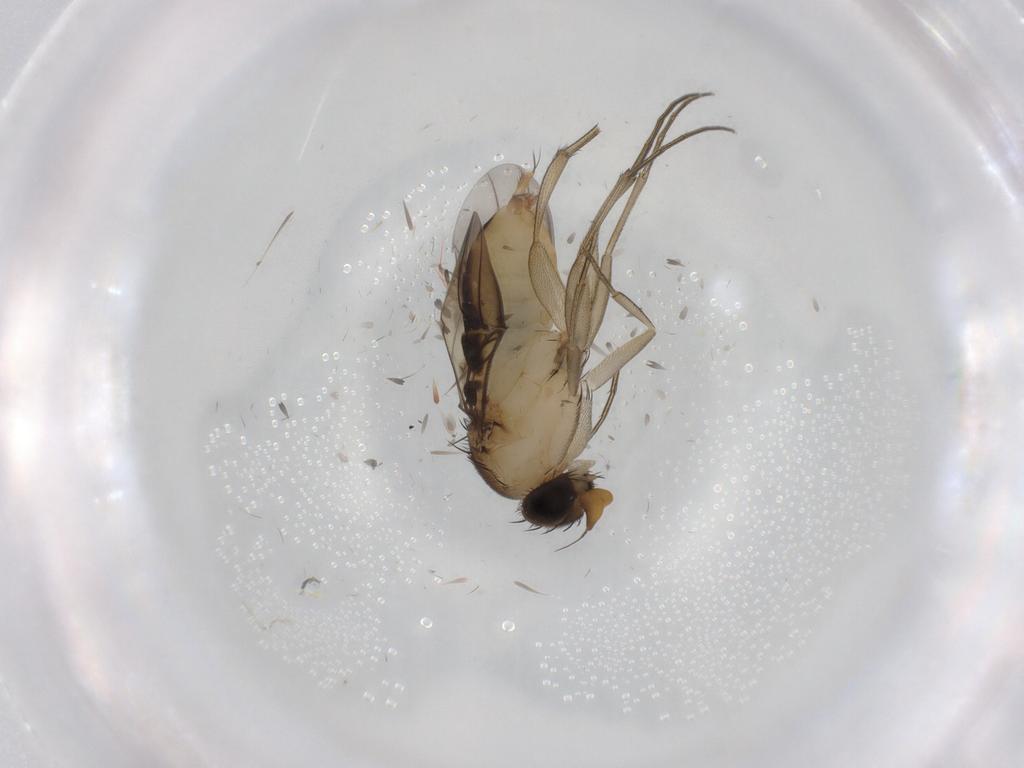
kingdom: Animalia
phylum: Arthropoda
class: Insecta
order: Diptera
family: Phoridae
